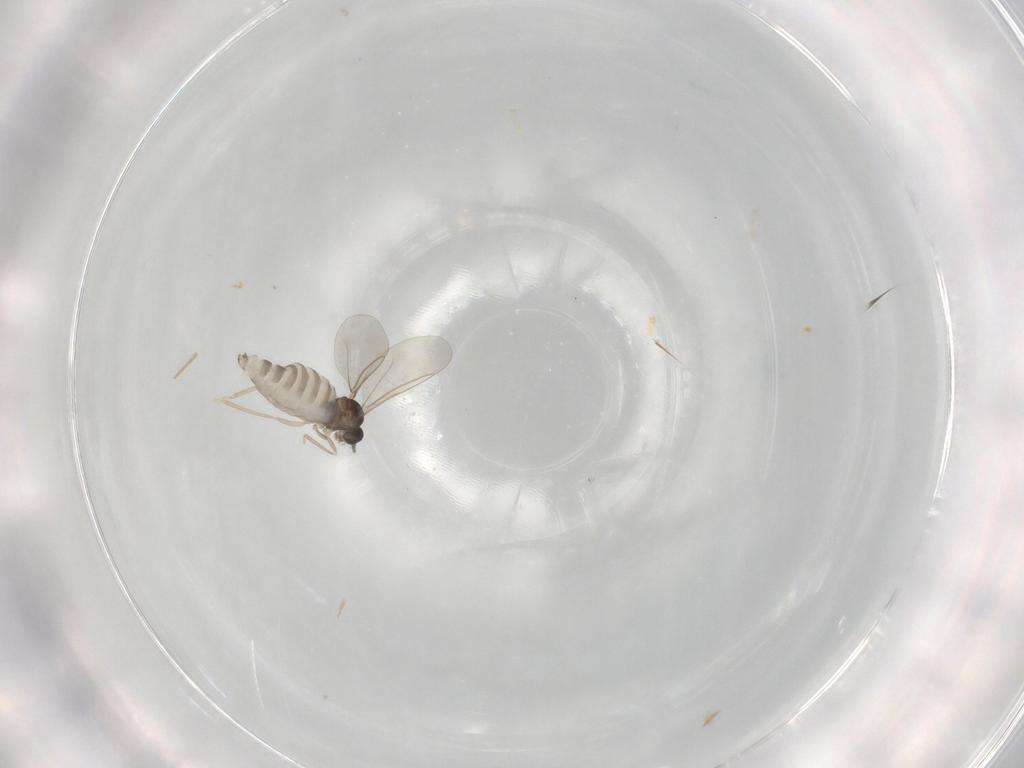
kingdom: Animalia
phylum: Arthropoda
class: Insecta
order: Diptera
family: Cecidomyiidae
